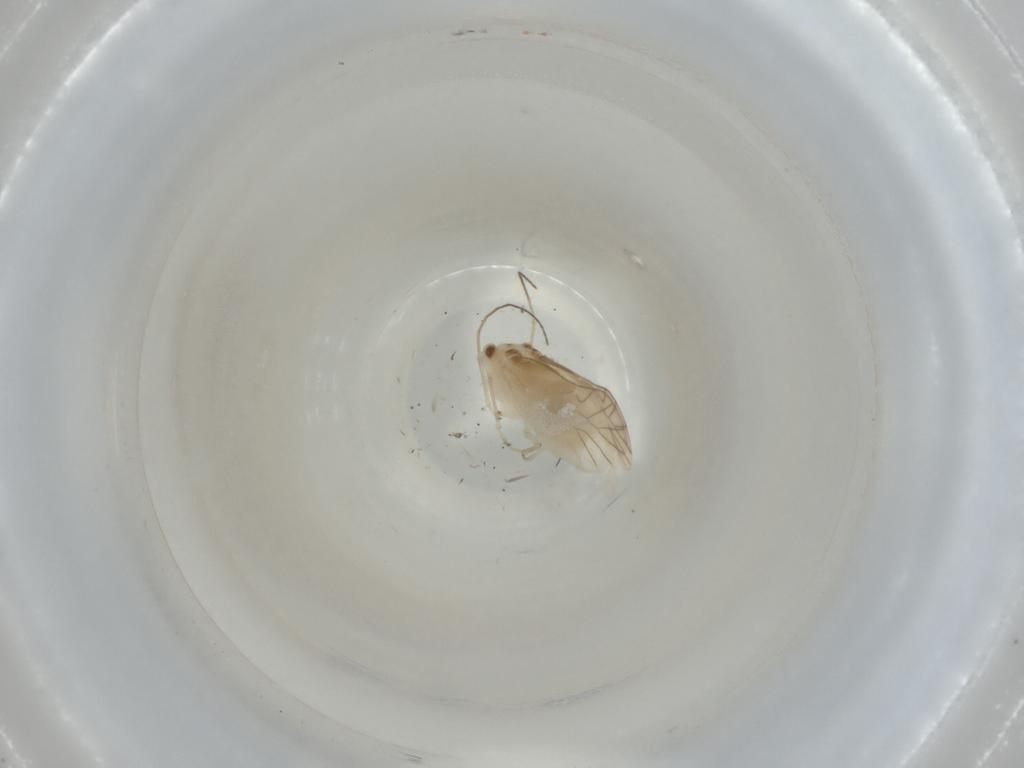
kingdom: Animalia
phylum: Arthropoda
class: Insecta
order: Psocodea
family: Caeciliusidae
